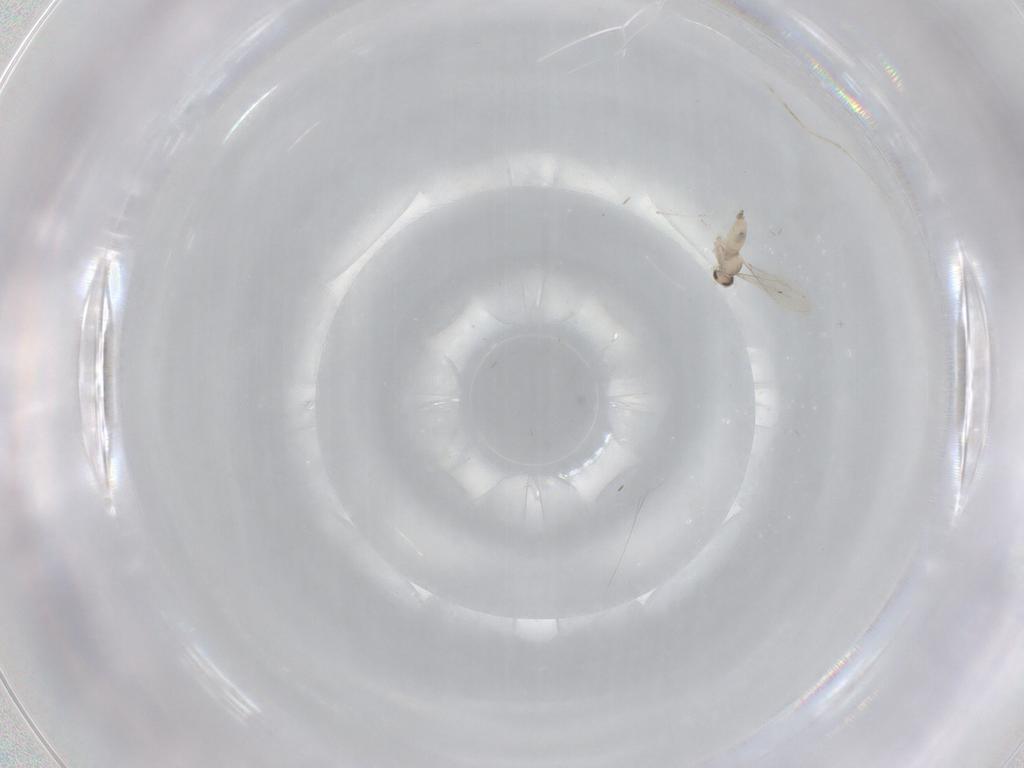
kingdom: Animalia
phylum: Arthropoda
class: Insecta
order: Diptera
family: Cecidomyiidae
